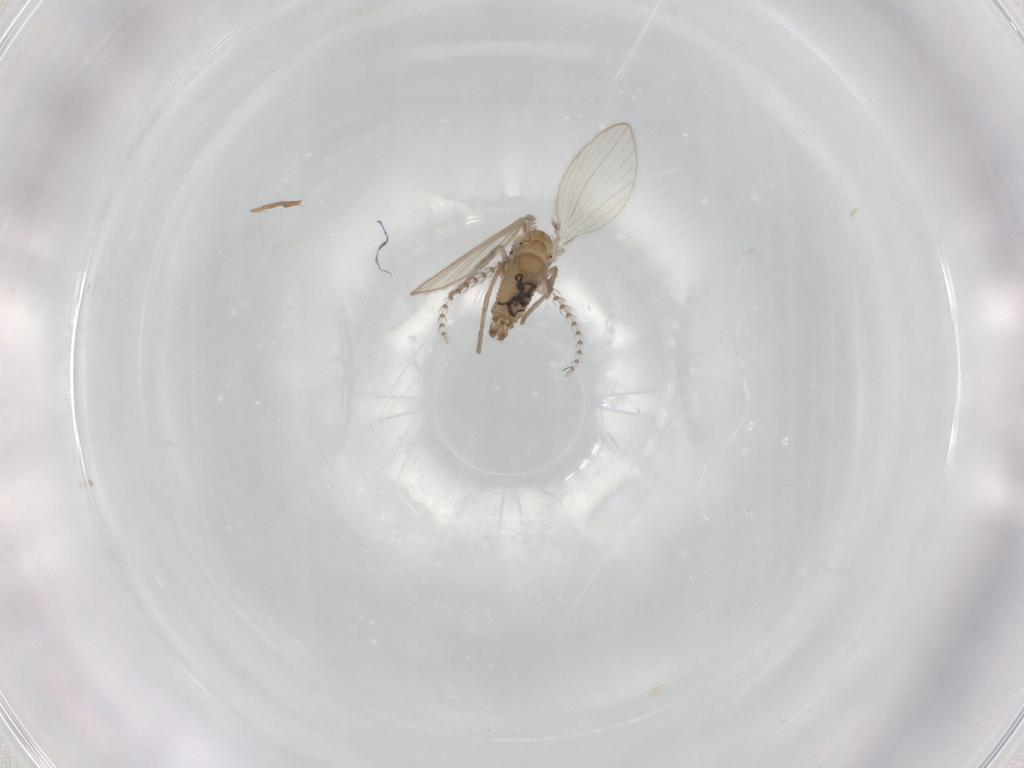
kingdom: Animalia
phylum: Arthropoda
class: Insecta
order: Diptera
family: Psychodidae
